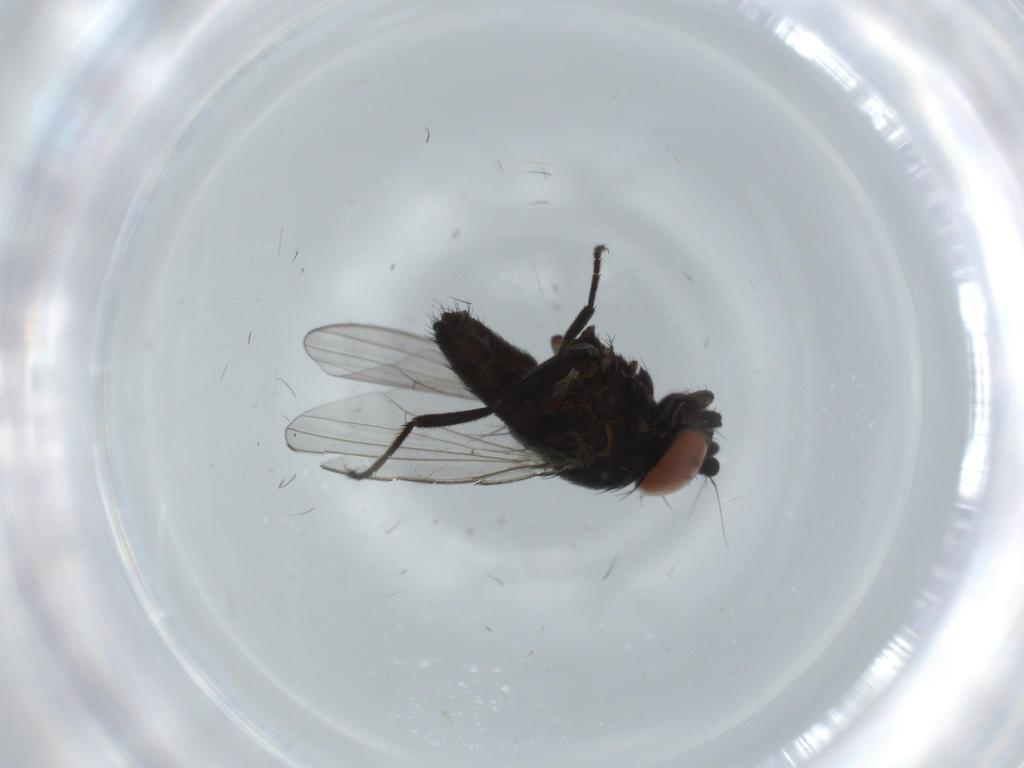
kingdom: Animalia
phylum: Arthropoda
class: Insecta
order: Diptera
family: Milichiidae
